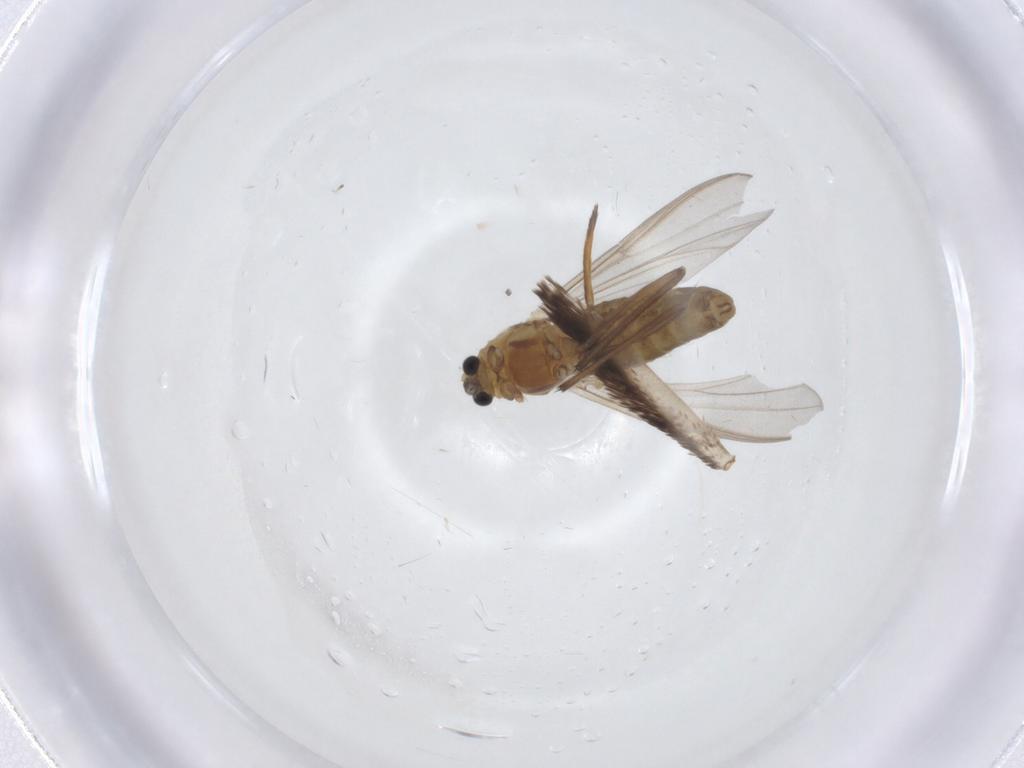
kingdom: Animalia
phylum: Arthropoda
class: Insecta
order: Diptera
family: Chironomidae
